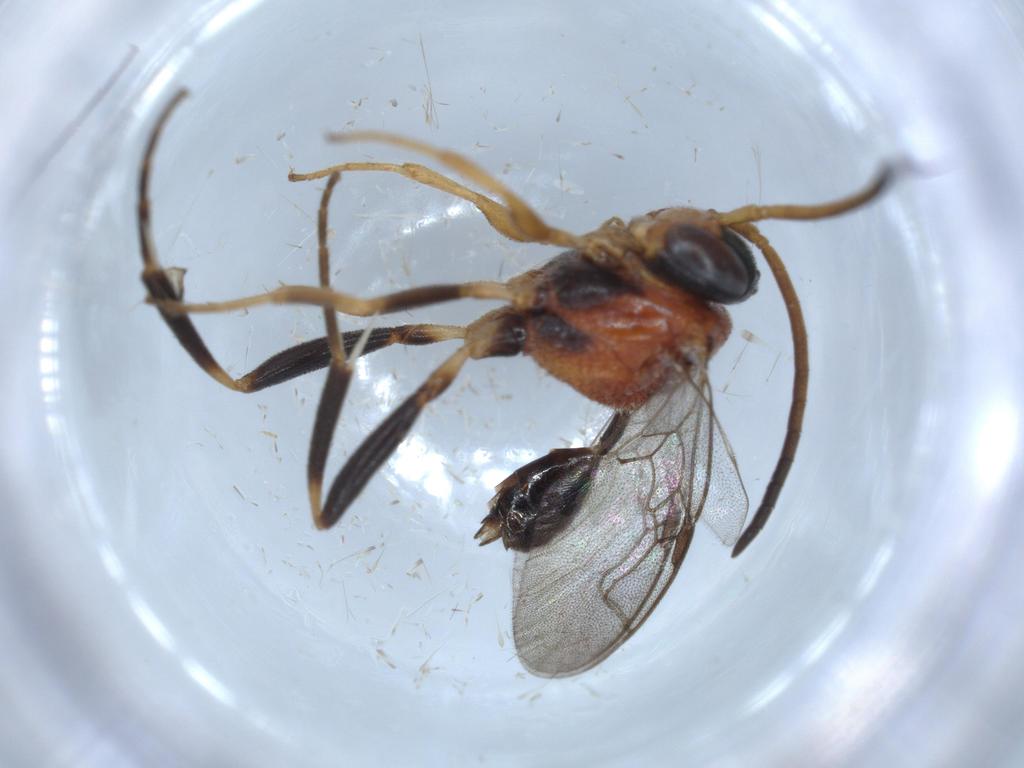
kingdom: Animalia
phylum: Arthropoda
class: Insecta
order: Hymenoptera
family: Evaniidae
